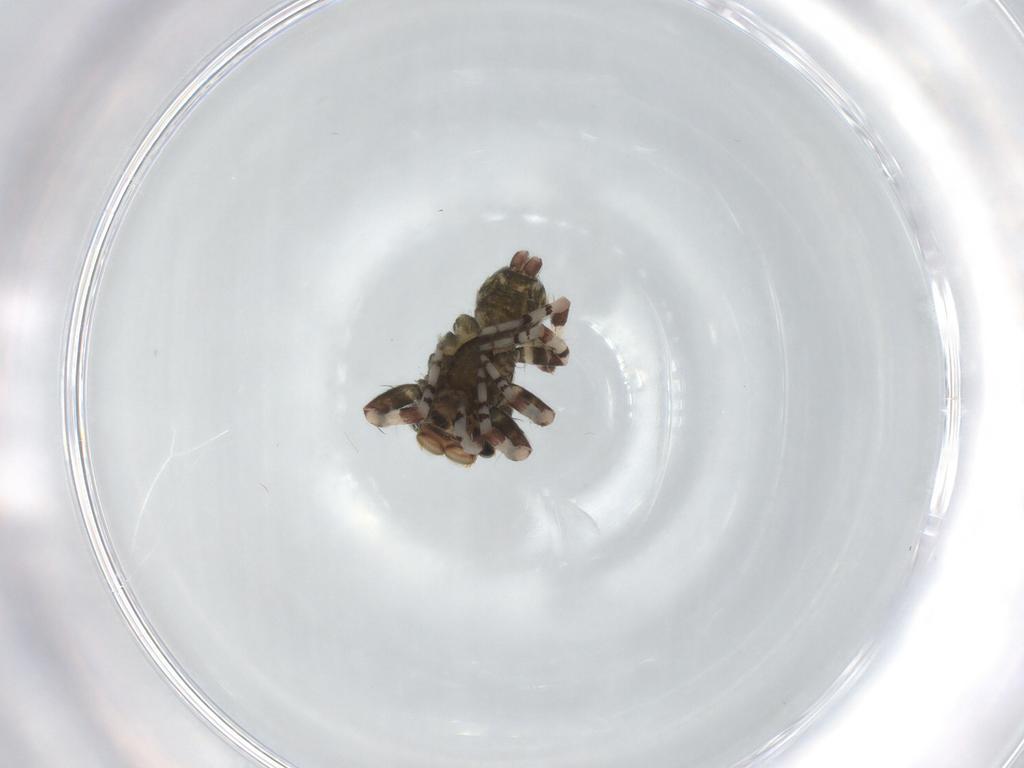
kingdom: Animalia
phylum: Arthropoda
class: Arachnida
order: Araneae
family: Salticidae
